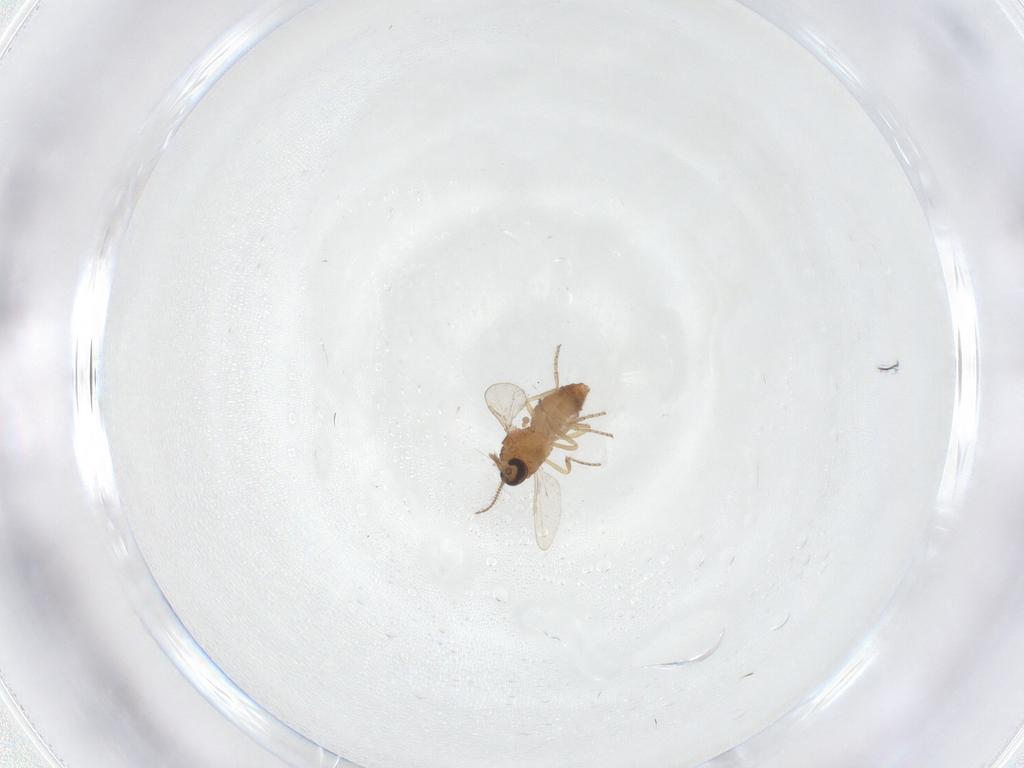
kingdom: Animalia
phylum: Arthropoda
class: Insecta
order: Diptera
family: Ceratopogonidae
